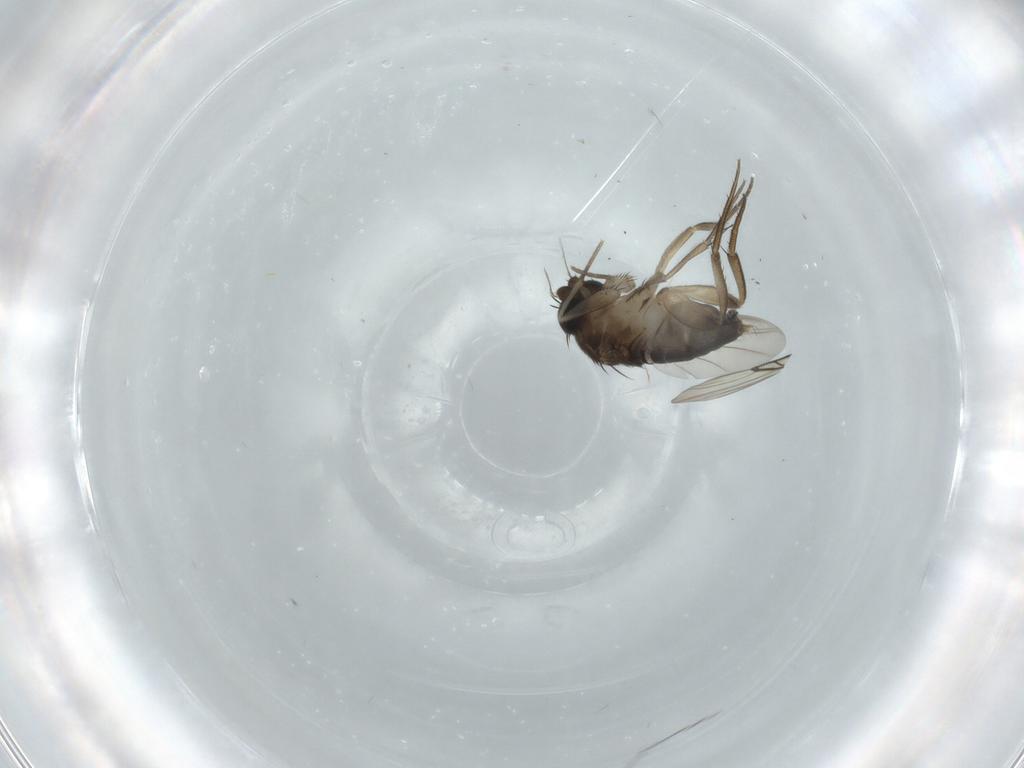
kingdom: Animalia
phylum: Arthropoda
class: Insecta
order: Diptera
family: Phoridae
